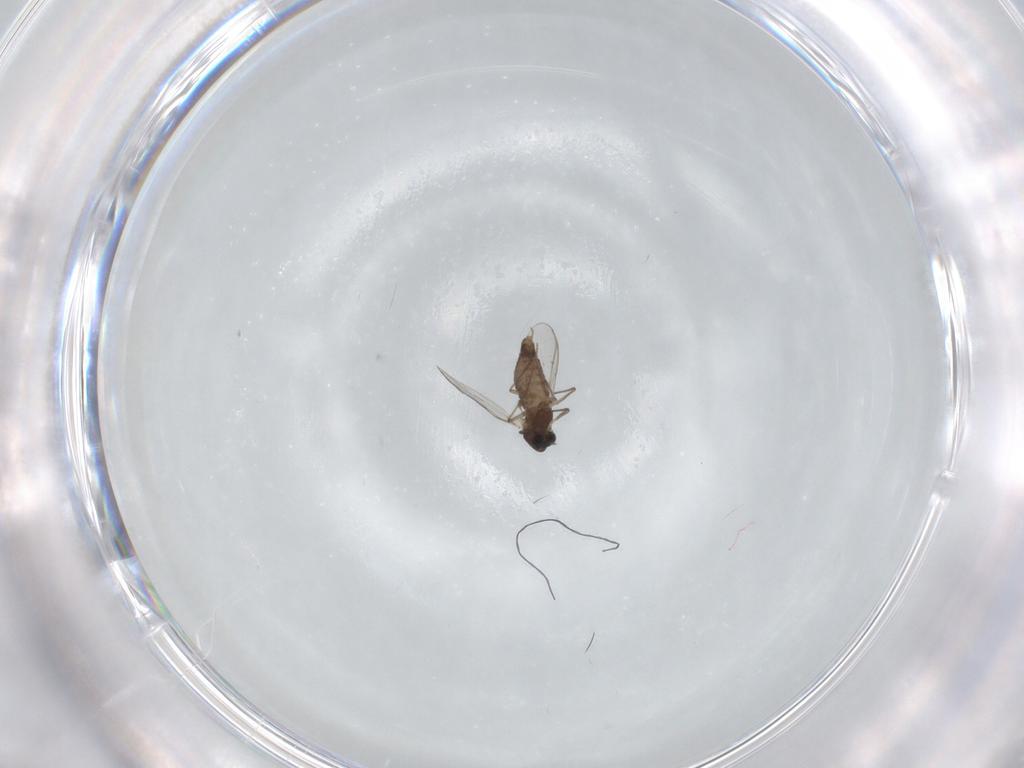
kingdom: Animalia
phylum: Arthropoda
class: Insecta
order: Diptera
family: Chironomidae
